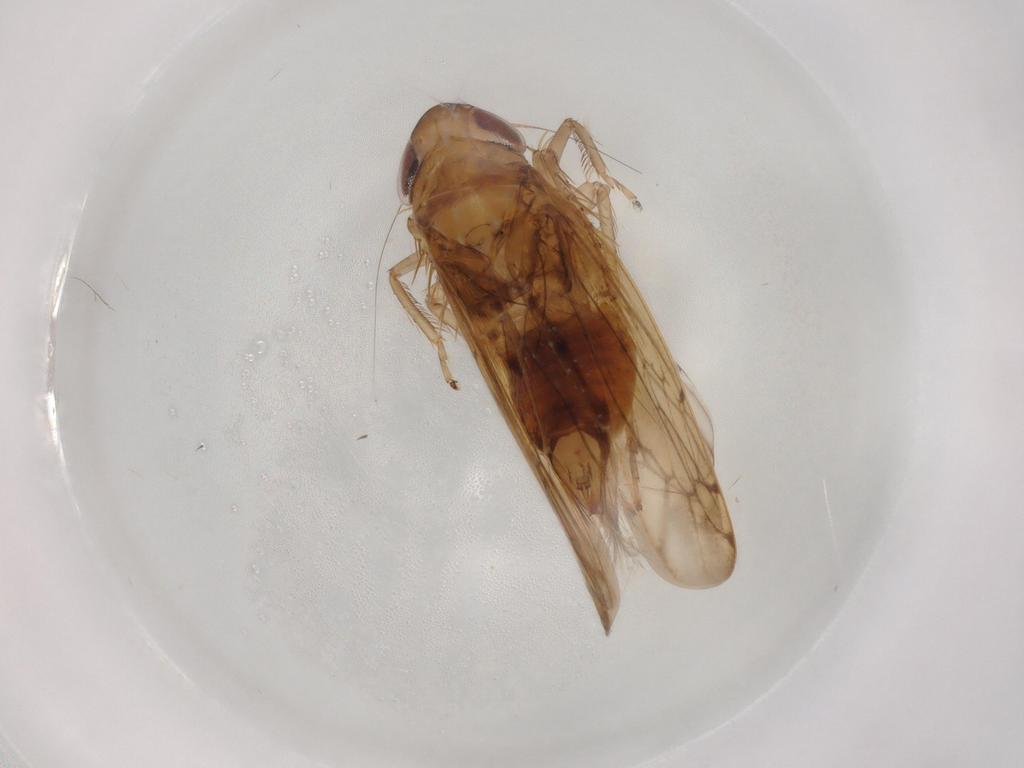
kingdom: Animalia
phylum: Arthropoda
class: Insecta
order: Hemiptera
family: Cicadellidae
